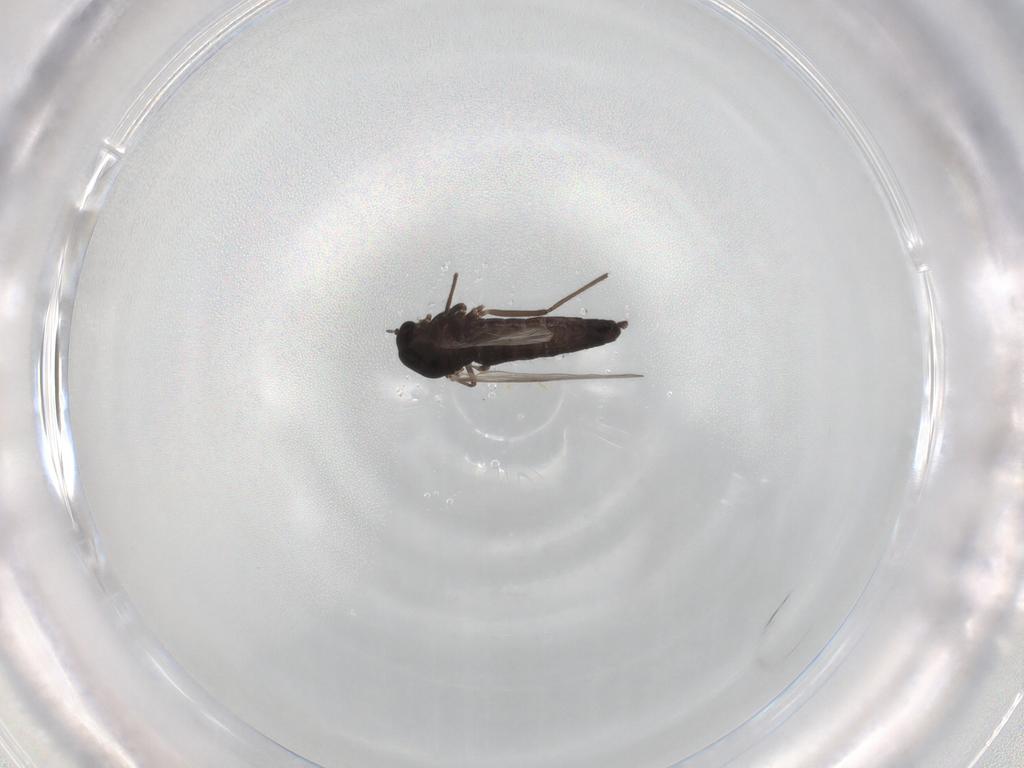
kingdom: Animalia
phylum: Arthropoda
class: Insecta
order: Diptera
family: Chironomidae
